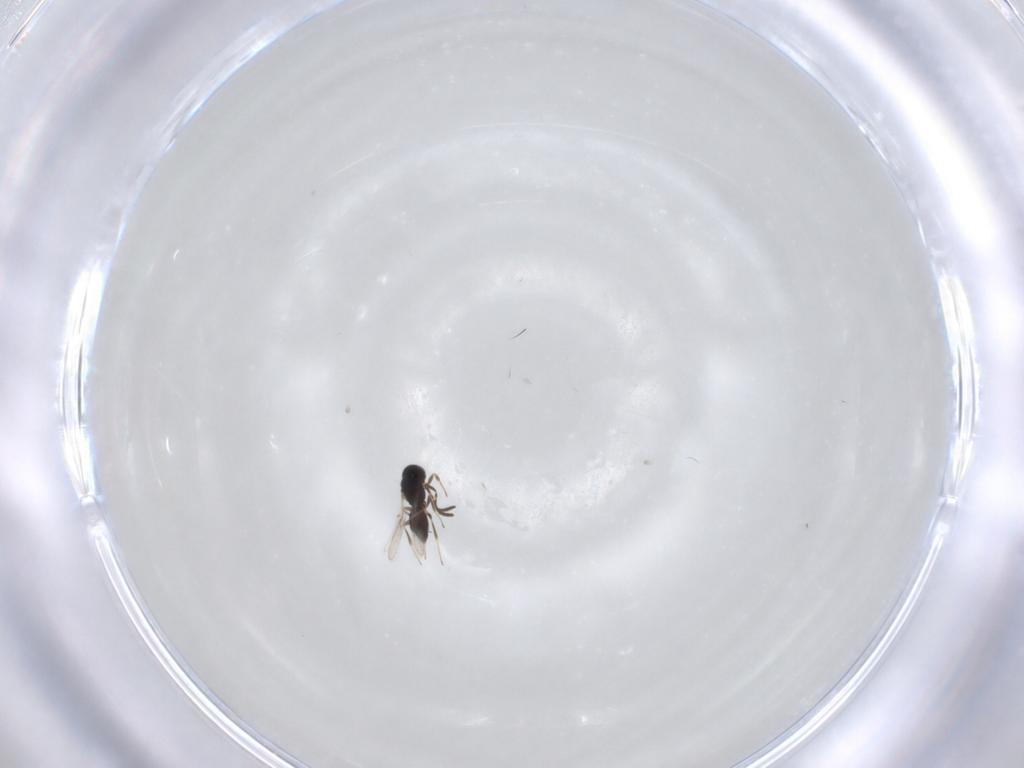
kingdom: Animalia
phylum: Arthropoda
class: Insecta
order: Hymenoptera
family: Scelionidae
